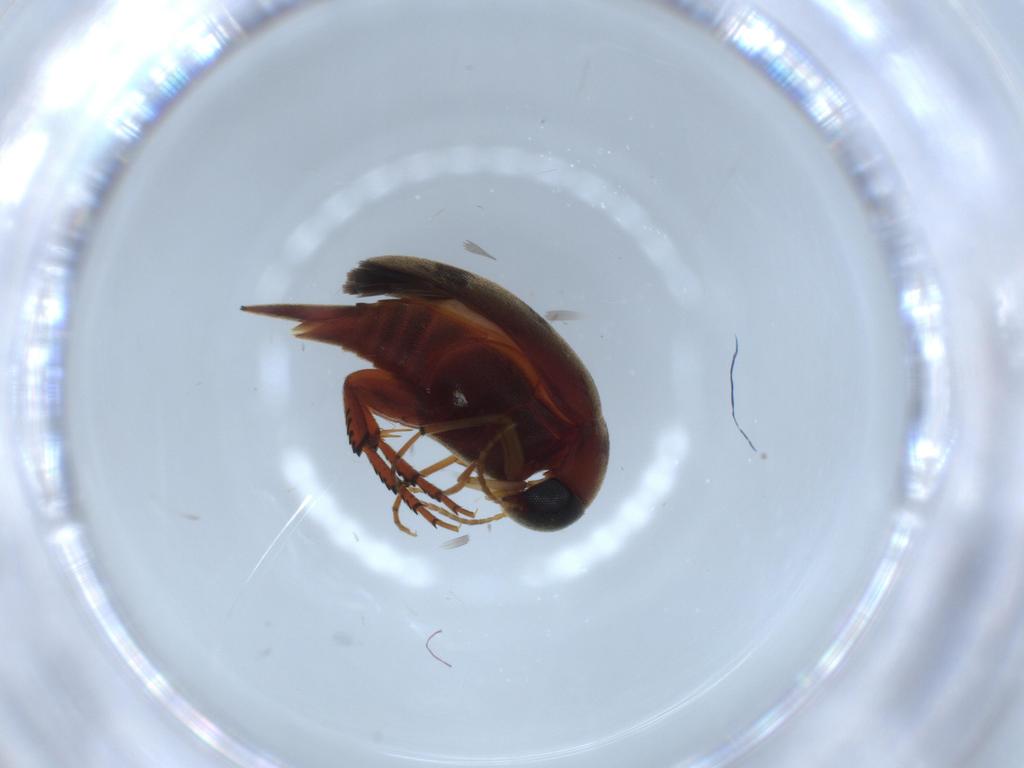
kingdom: Animalia
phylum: Arthropoda
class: Insecta
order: Coleoptera
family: Mordellidae
